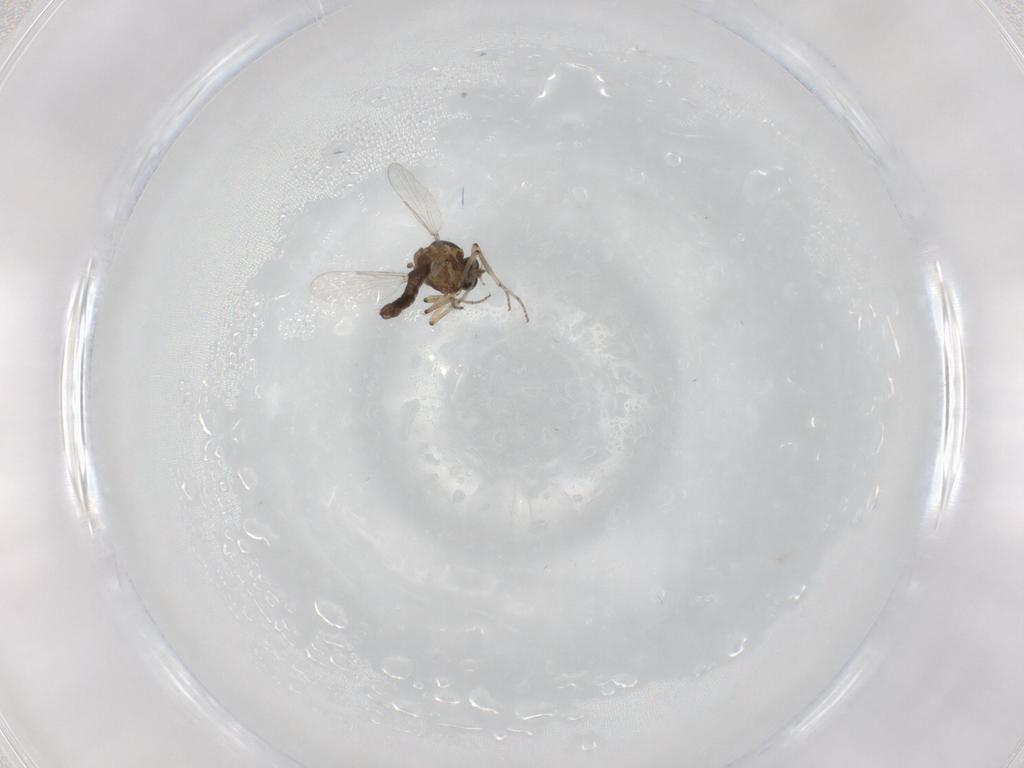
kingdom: Animalia
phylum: Arthropoda
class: Insecta
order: Diptera
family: Ceratopogonidae
